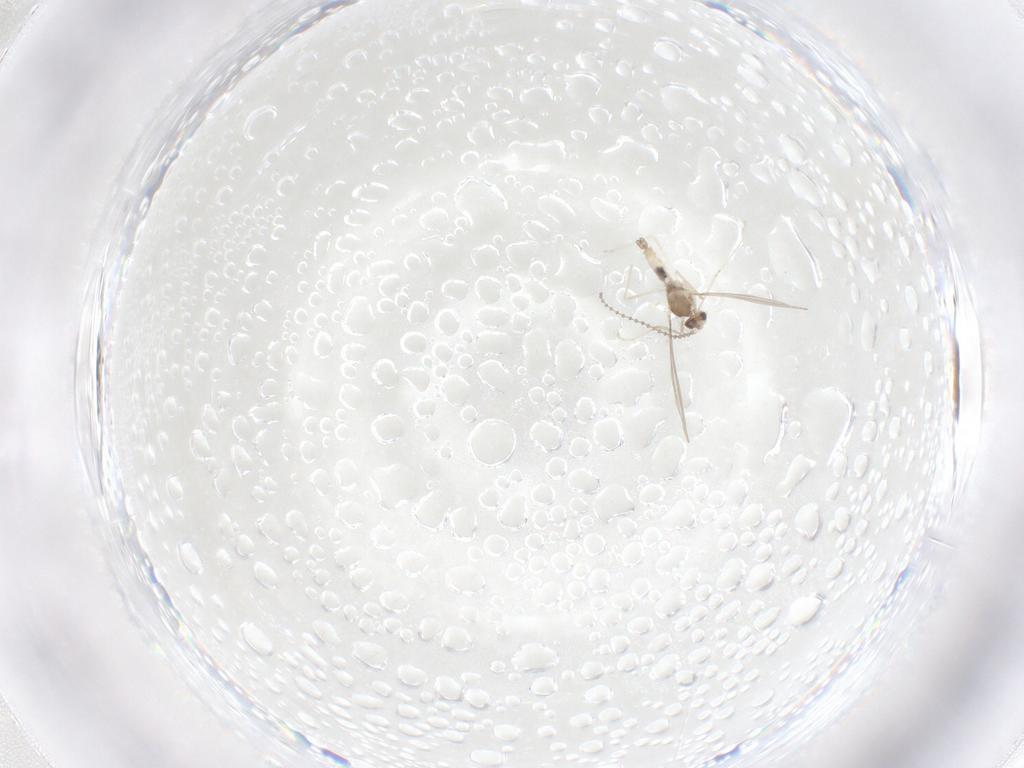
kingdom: Animalia
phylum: Arthropoda
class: Insecta
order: Diptera
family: Cecidomyiidae
